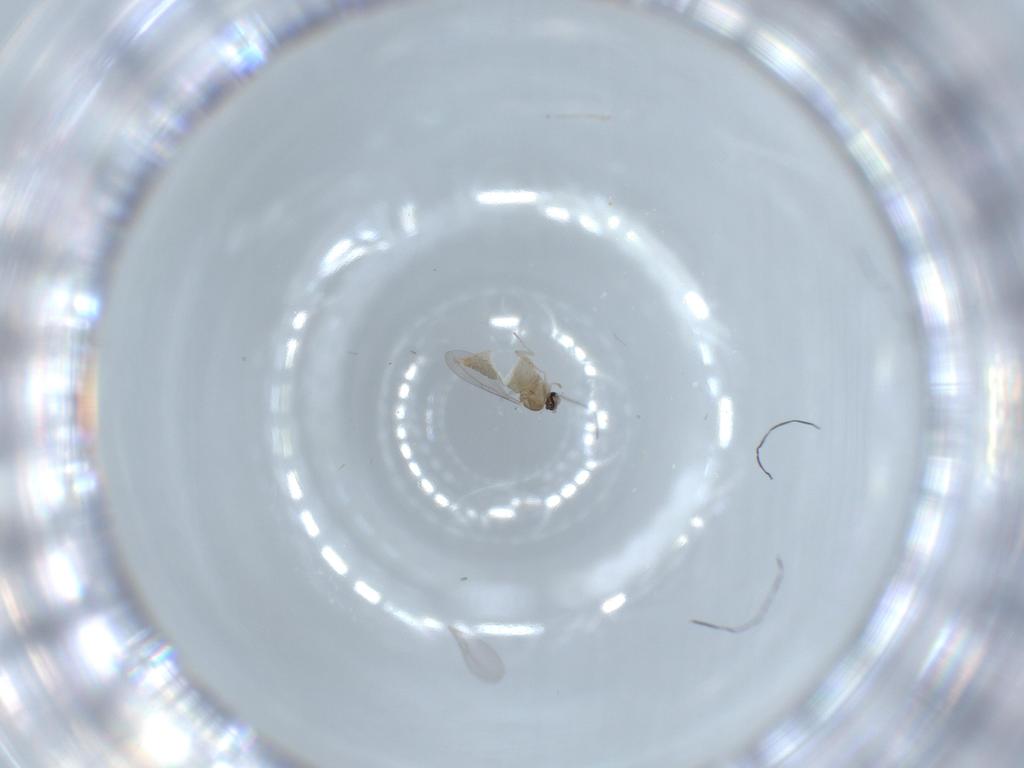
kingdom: Animalia
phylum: Arthropoda
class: Insecta
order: Diptera
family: Cecidomyiidae
